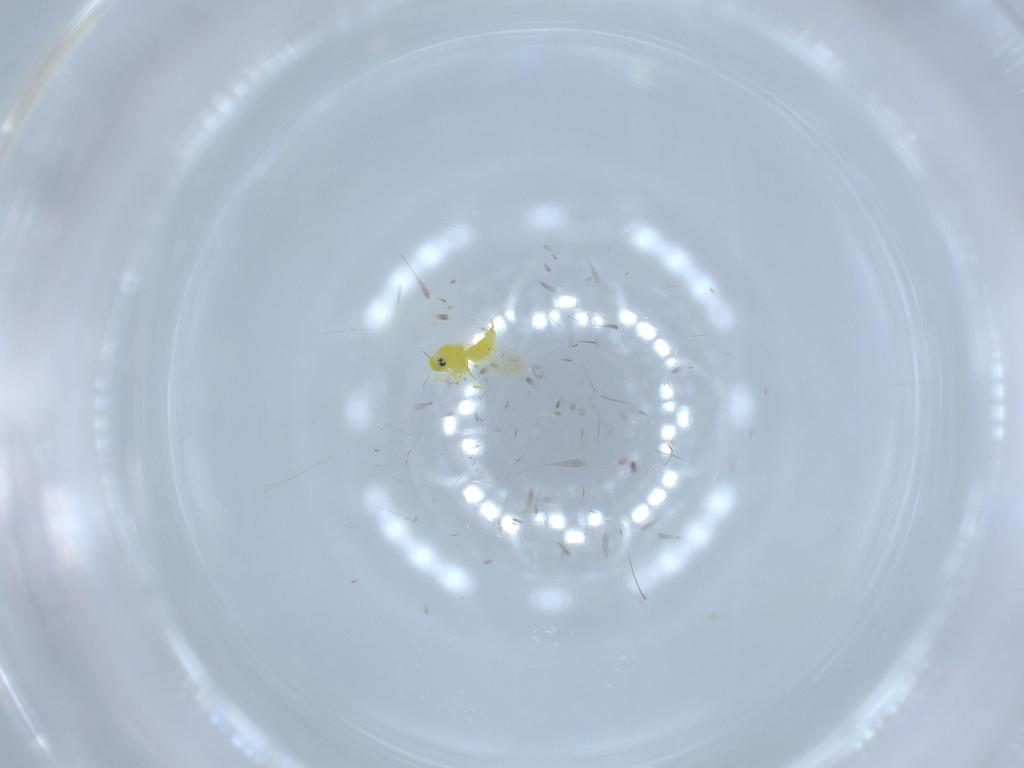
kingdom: Animalia
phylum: Arthropoda
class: Insecta
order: Hemiptera
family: Aleyrodidae
